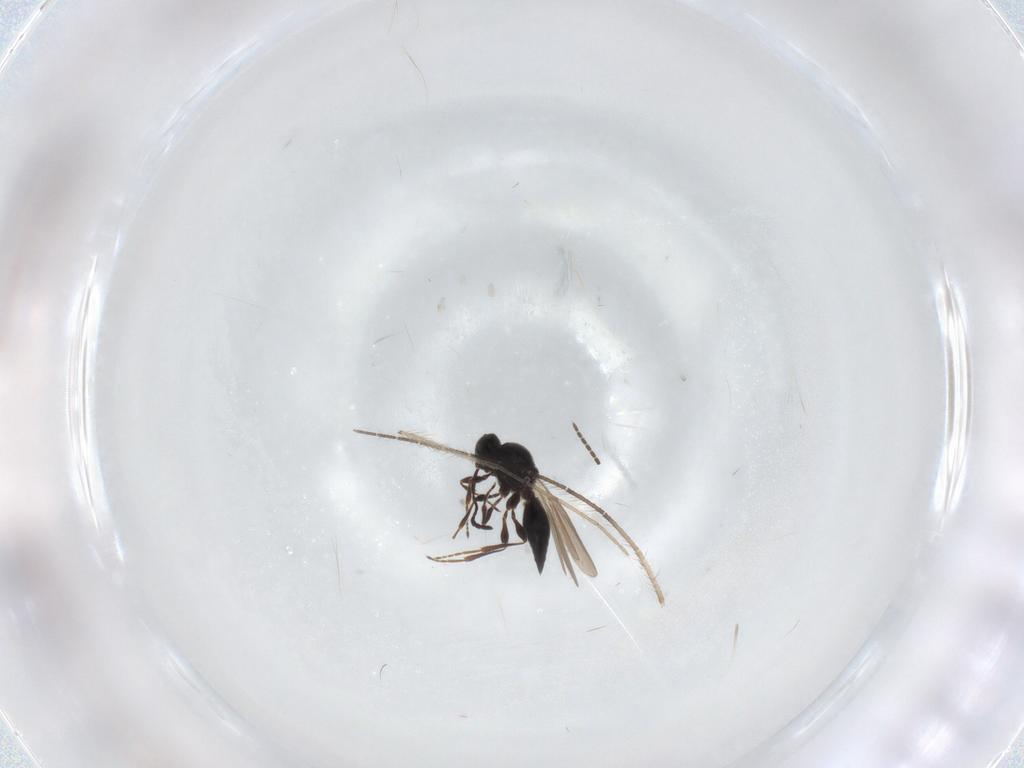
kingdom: Animalia
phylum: Arthropoda
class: Insecta
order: Hymenoptera
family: Platygastridae
